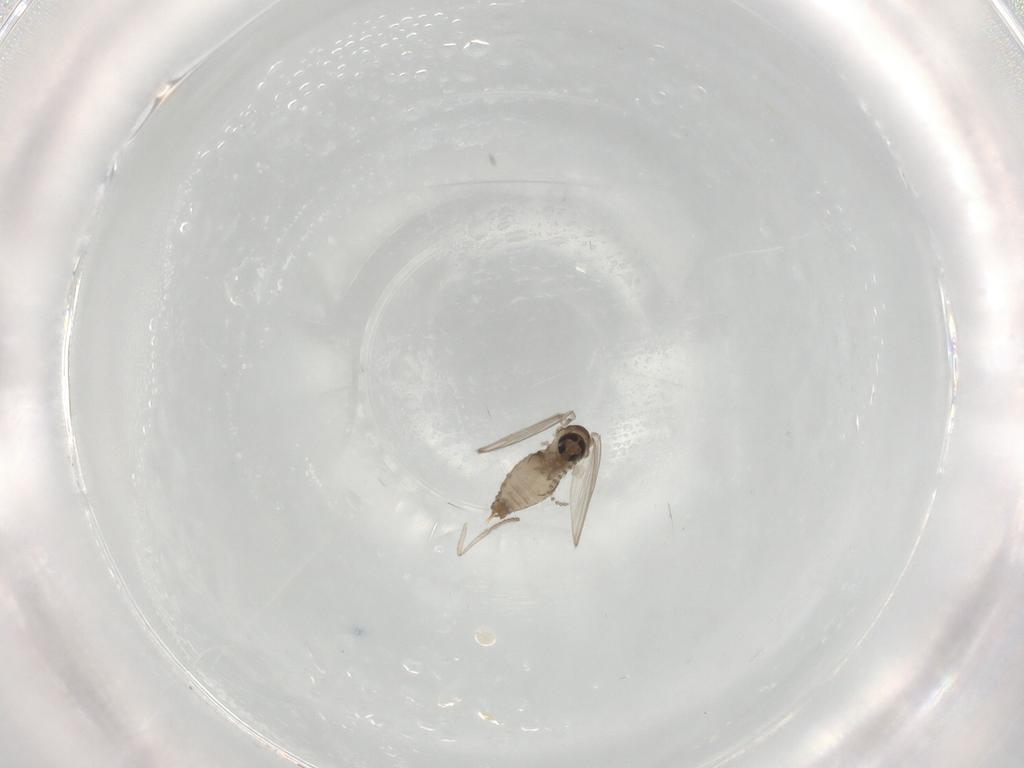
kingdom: Animalia
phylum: Arthropoda
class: Insecta
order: Diptera
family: Psychodidae
